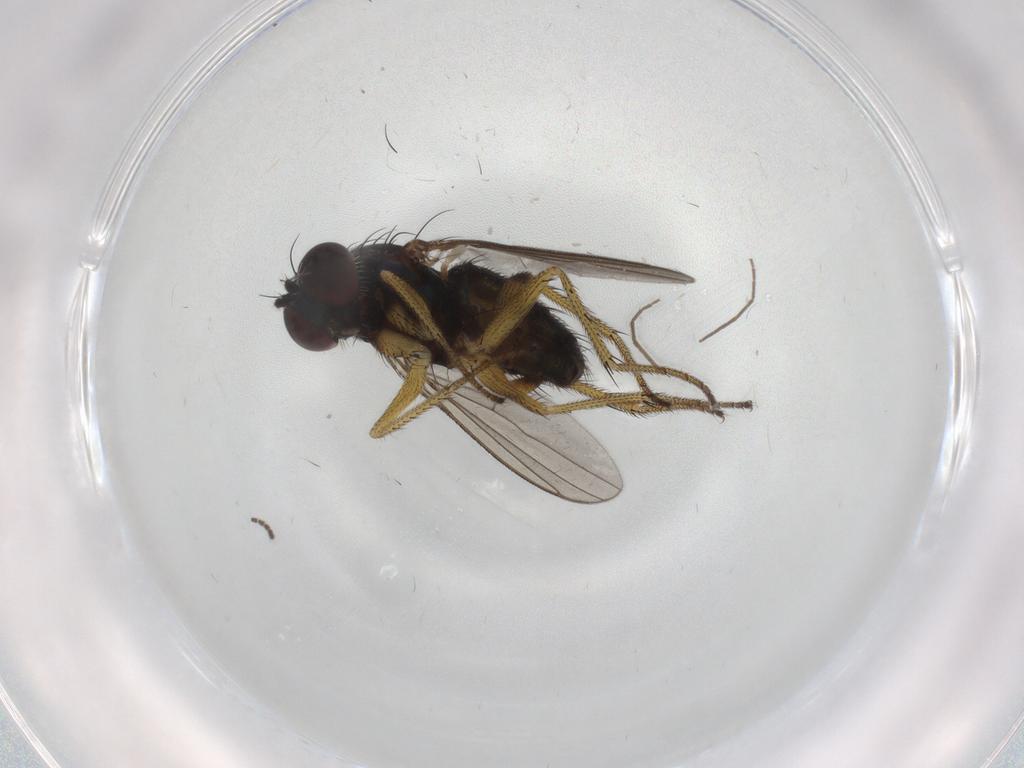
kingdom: Animalia
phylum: Arthropoda
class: Insecta
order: Diptera
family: Dolichopodidae
